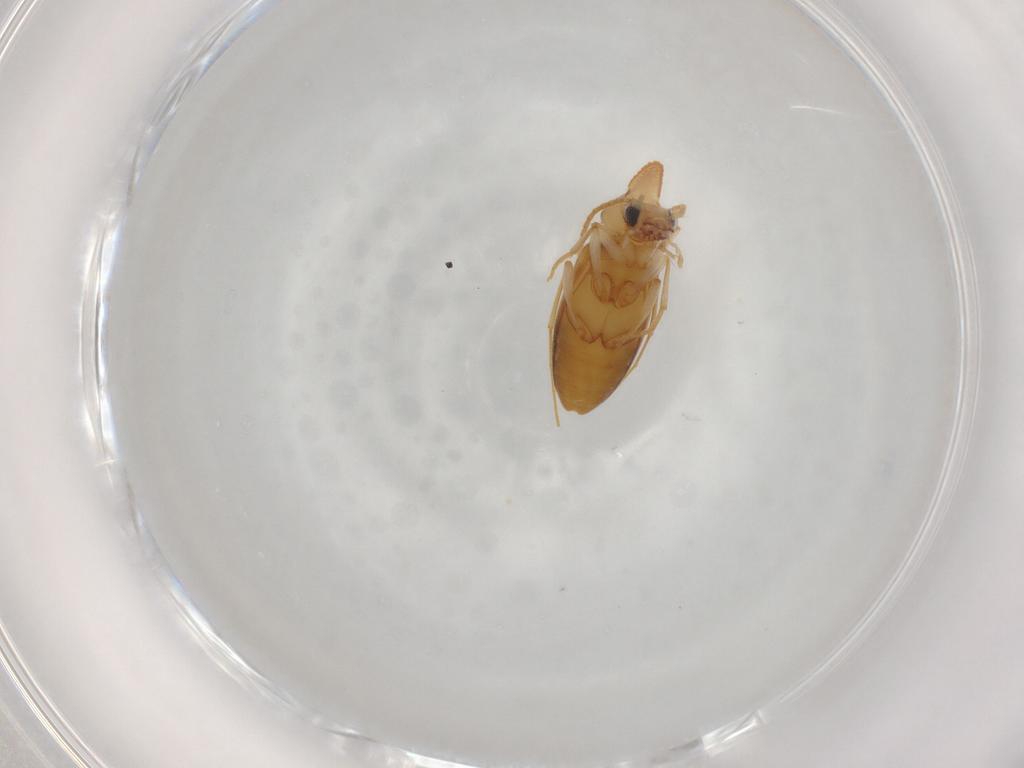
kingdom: Animalia
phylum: Arthropoda
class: Insecta
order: Coleoptera
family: Anthicidae
